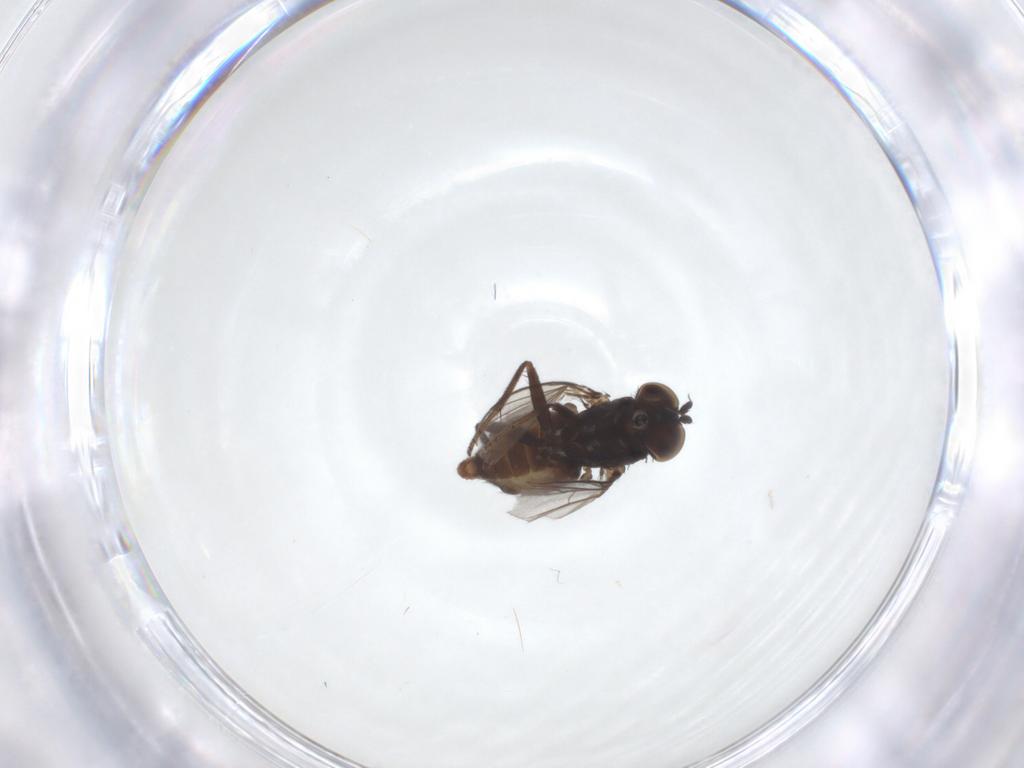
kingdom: Animalia
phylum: Arthropoda
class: Insecta
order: Diptera
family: Dolichopodidae
